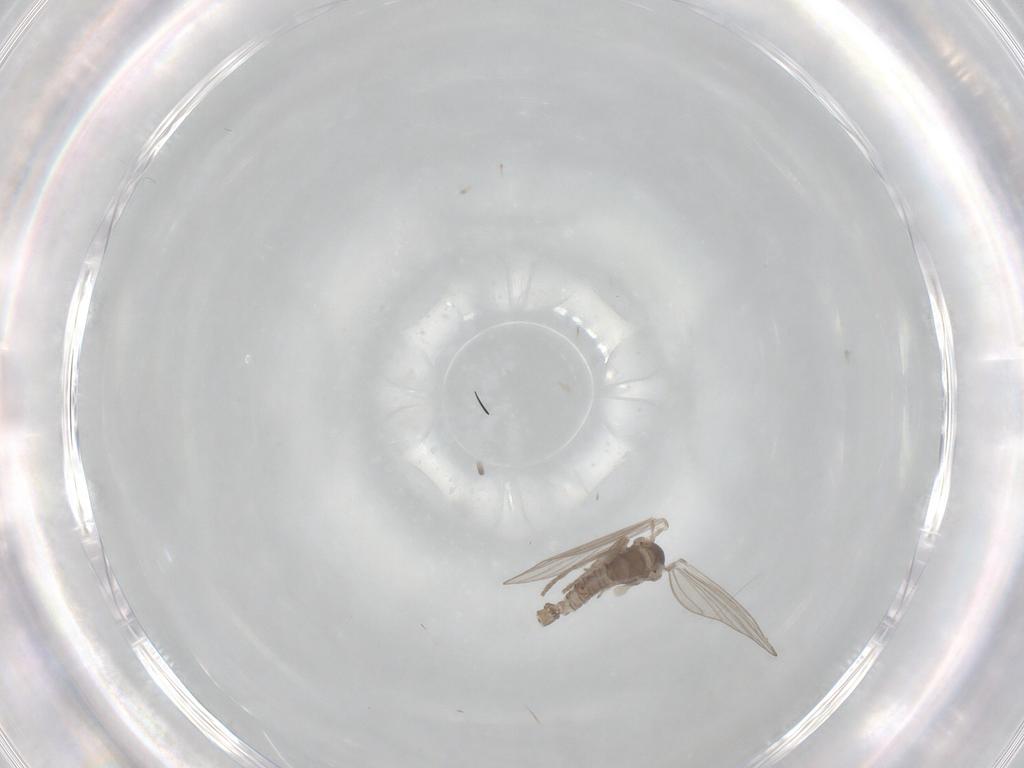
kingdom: Animalia
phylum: Arthropoda
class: Insecta
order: Diptera
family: Psychodidae
